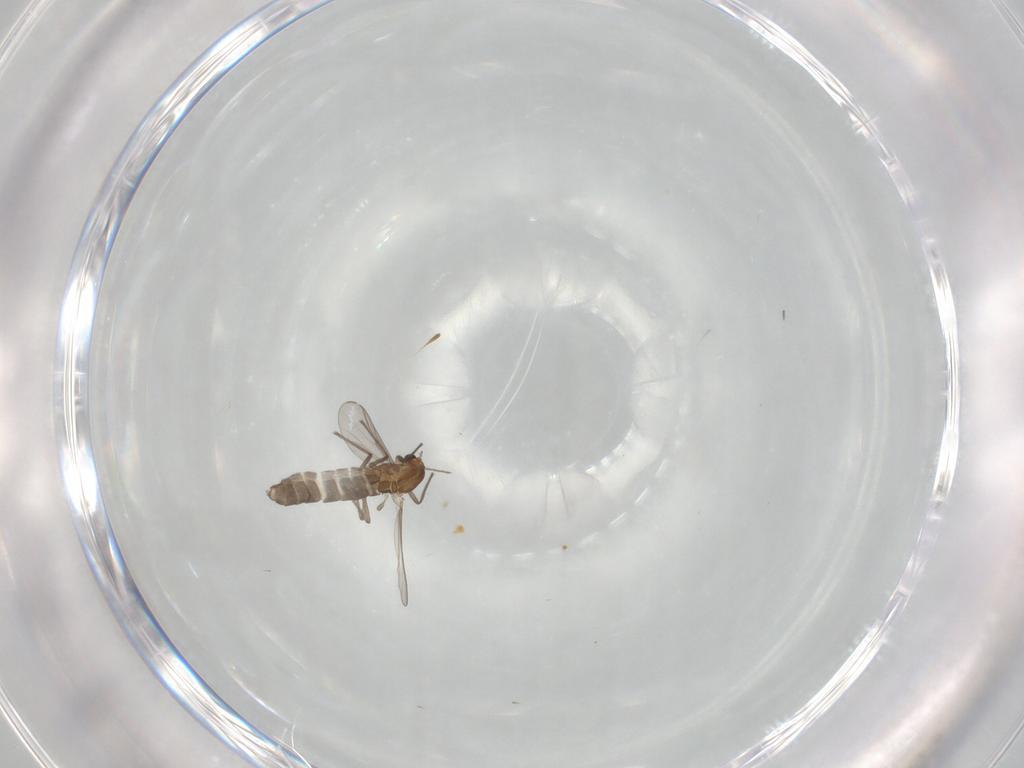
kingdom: Animalia
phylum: Arthropoda
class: Insecta
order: Diptera
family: Chironomidae
